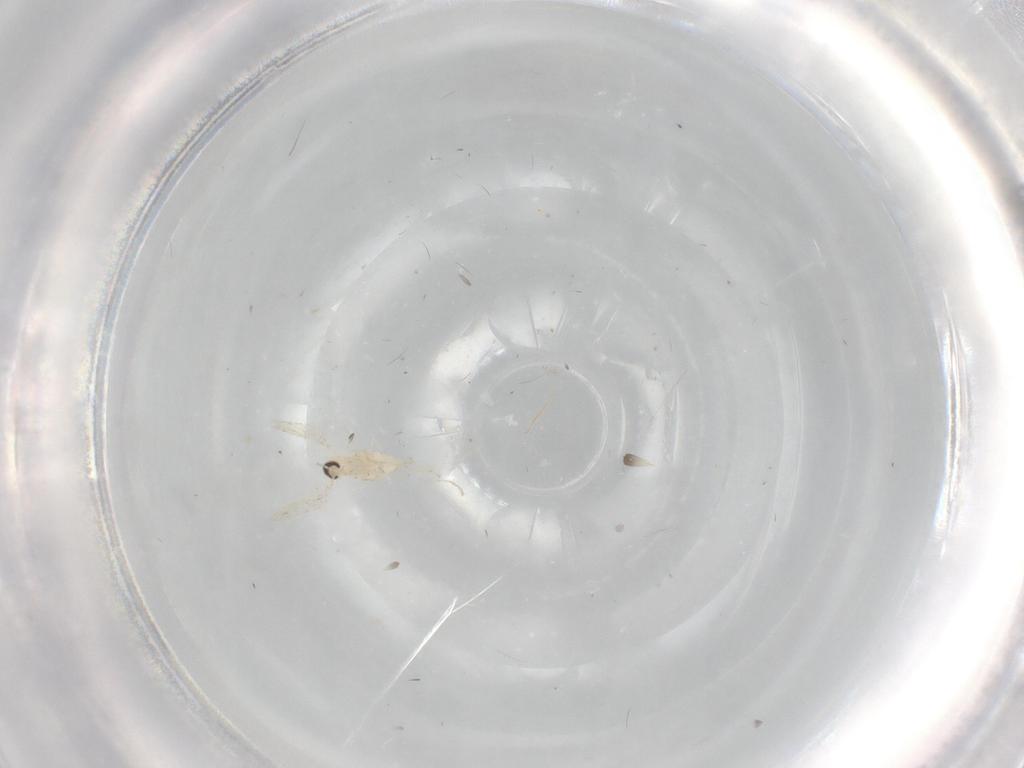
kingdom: Animalia
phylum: Arthropoda
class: Insecta
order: Diptera
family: Cecidomyiidae
